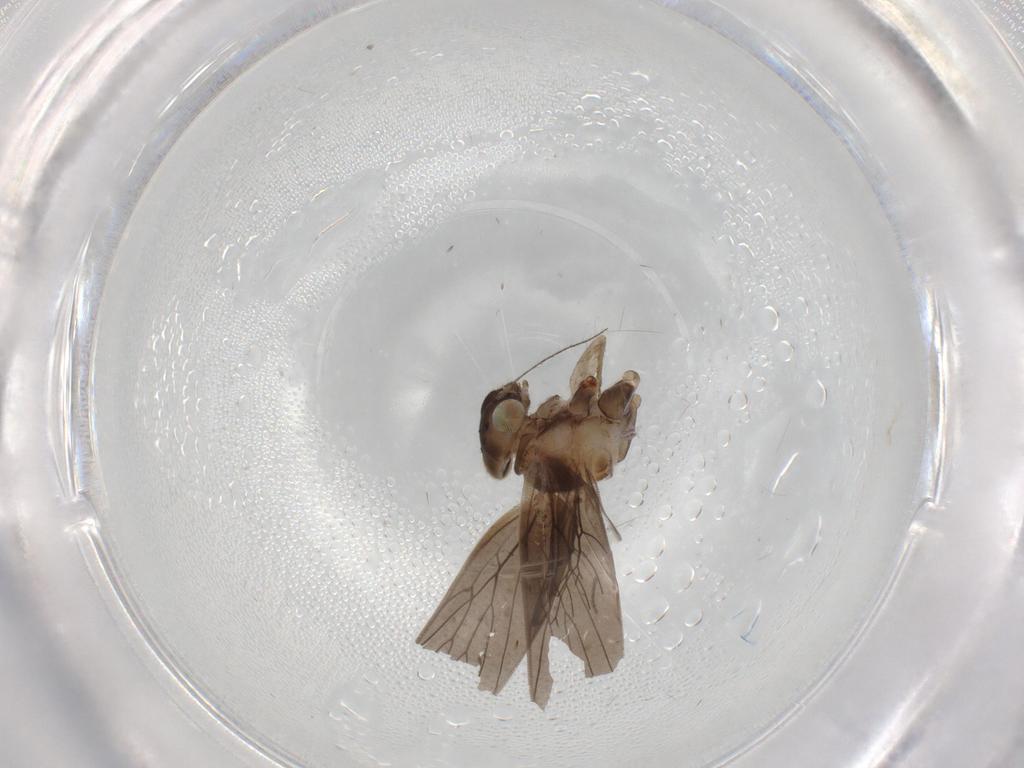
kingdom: Animalia
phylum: Arthropoda
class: Insecta
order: Psocodea
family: Lepidopsocidae
